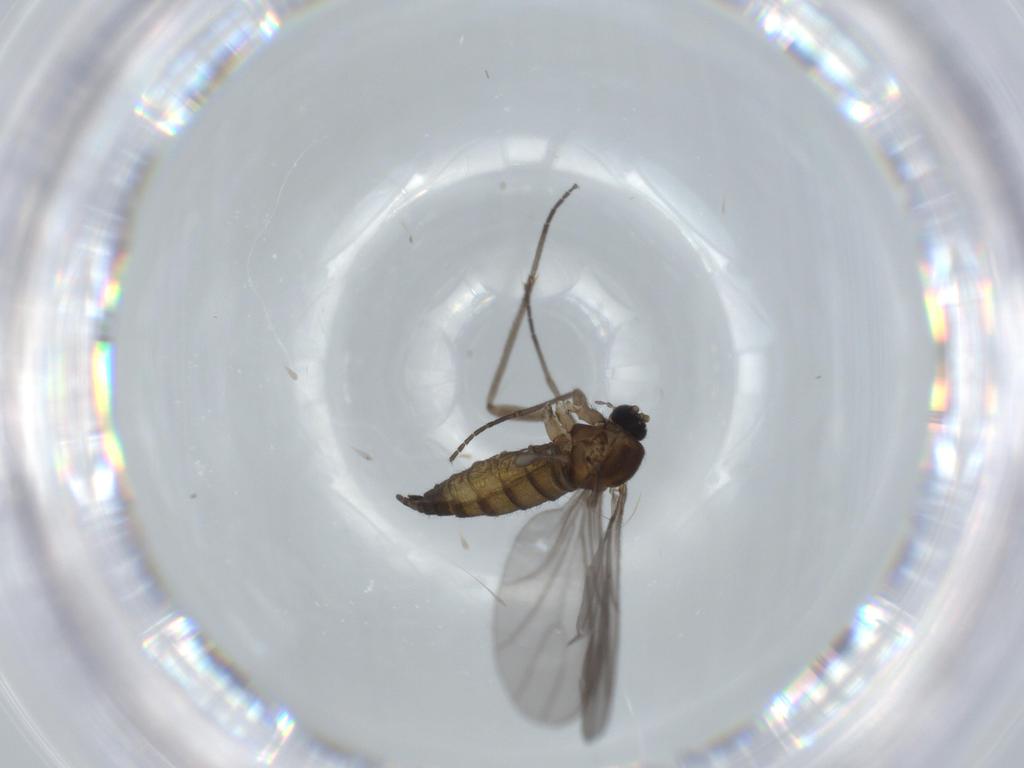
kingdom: Animalia
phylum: Arthropoda
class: Insecta
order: Diptera
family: Sciaridae
